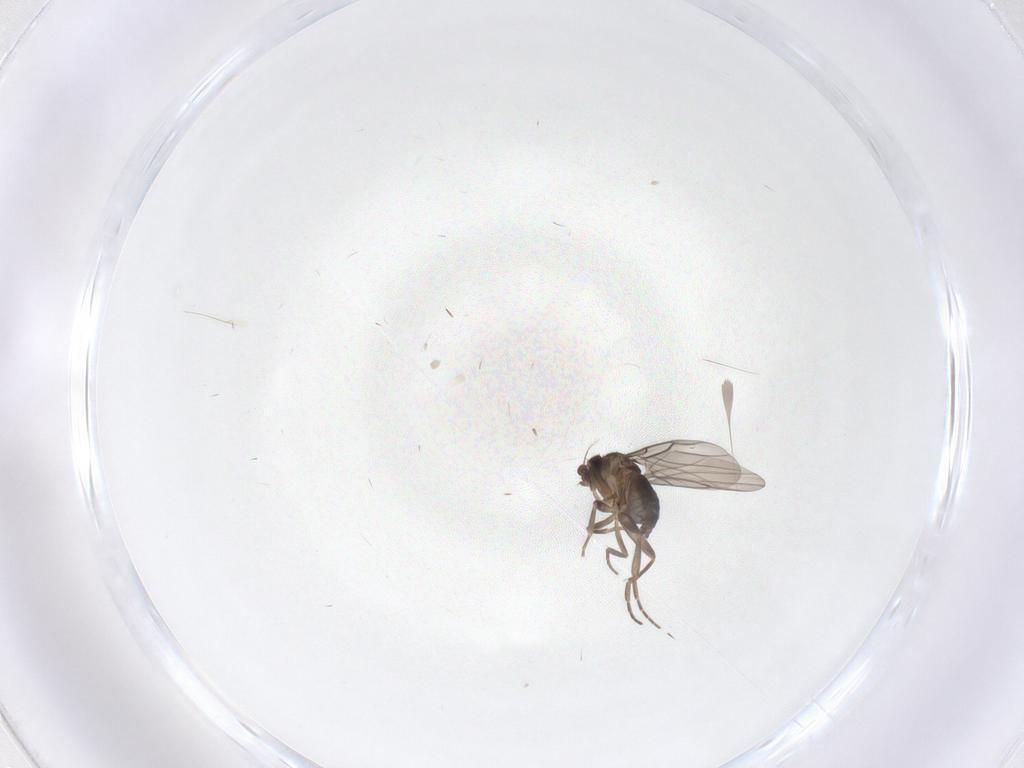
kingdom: Animalia
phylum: Arthropoda
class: Insecta
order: Diptera
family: Phoridae
